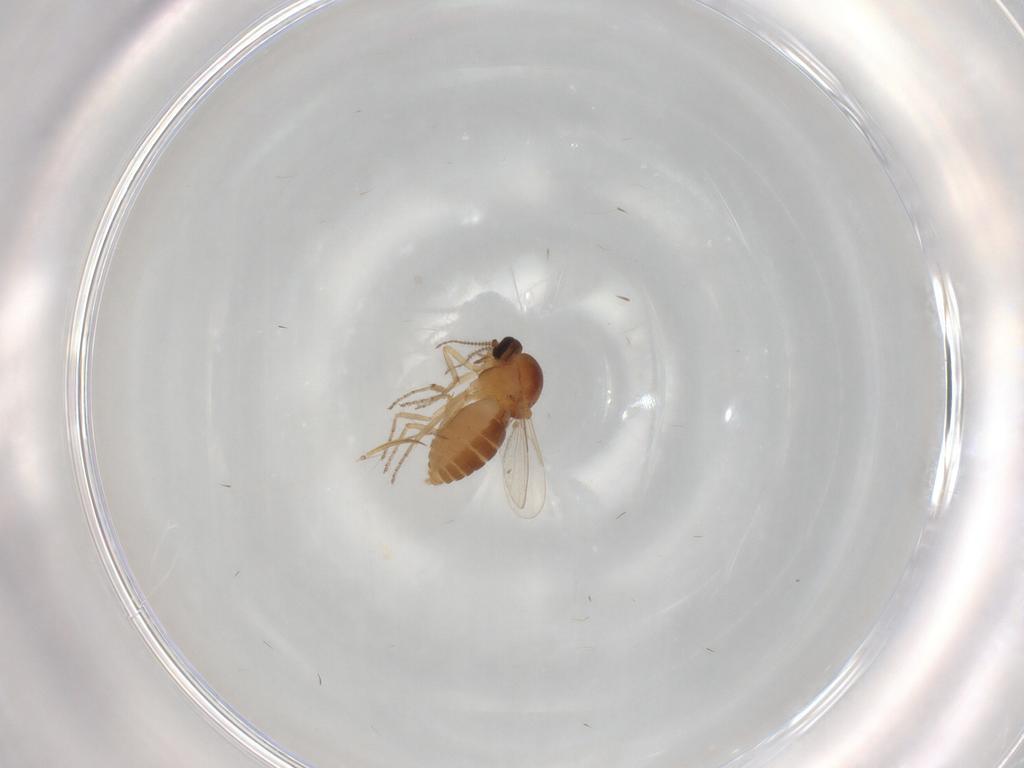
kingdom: Animalia
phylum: Arthropoda
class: Insecta
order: Diptera
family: Ceratopogonidae
